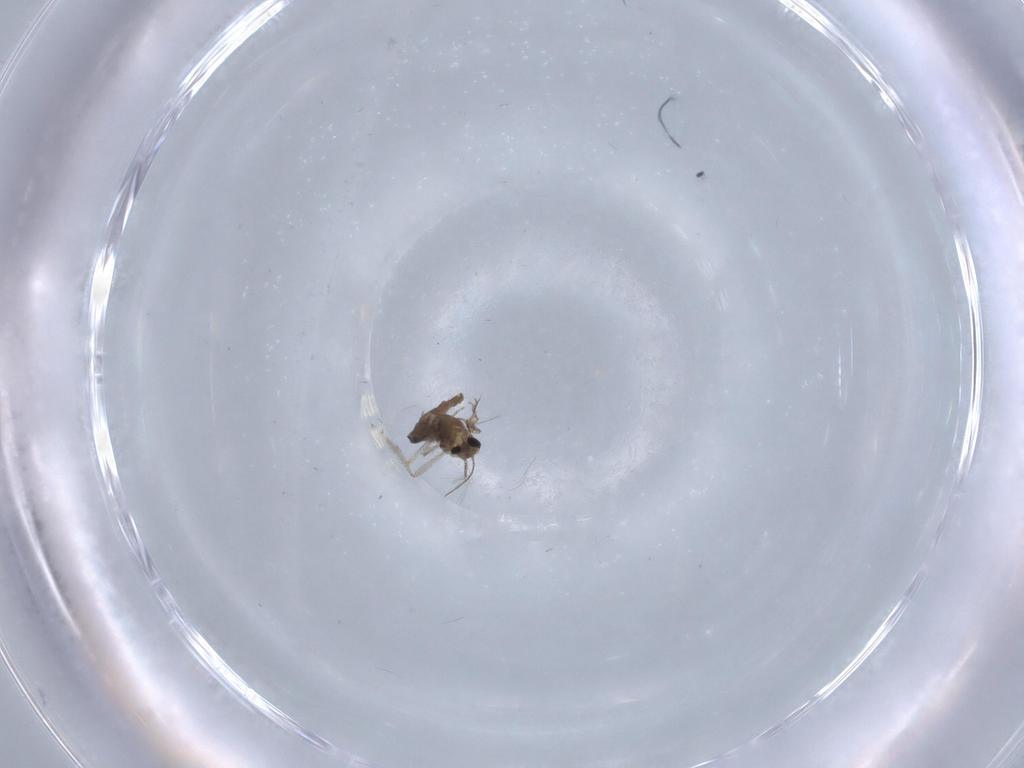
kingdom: Animalia
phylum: Arthropoda
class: Insecta
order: Diptera
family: Chironomidae
